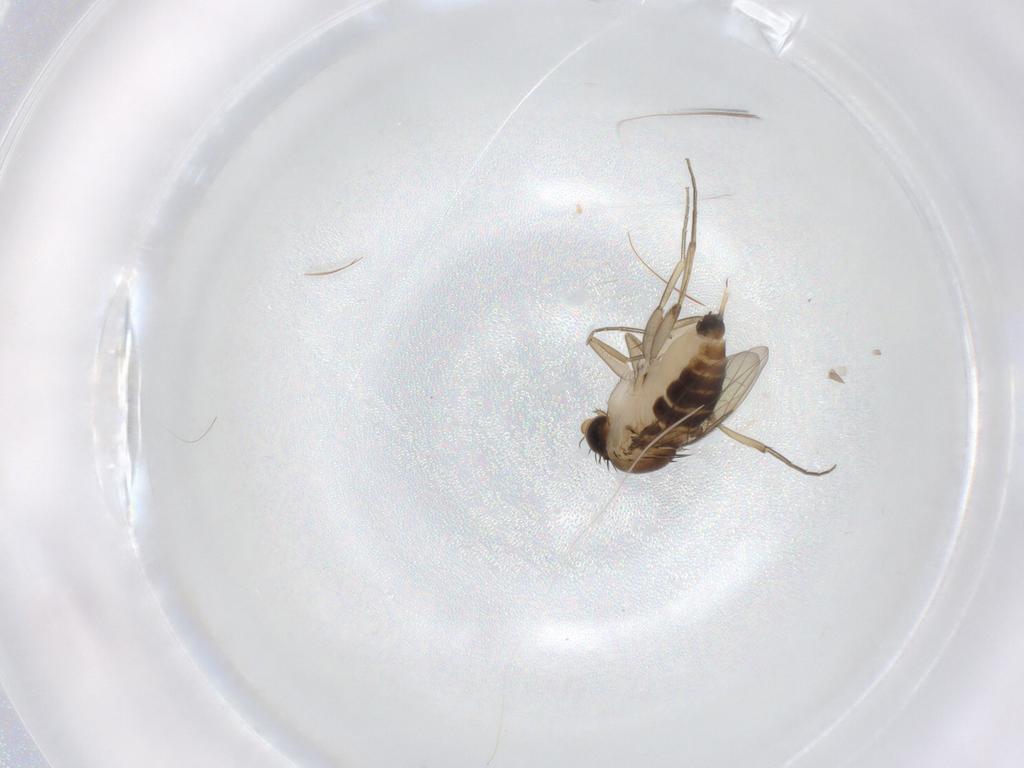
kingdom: Animalia
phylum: Arthropoda
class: Insecta
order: Diptera
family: Phoridae
